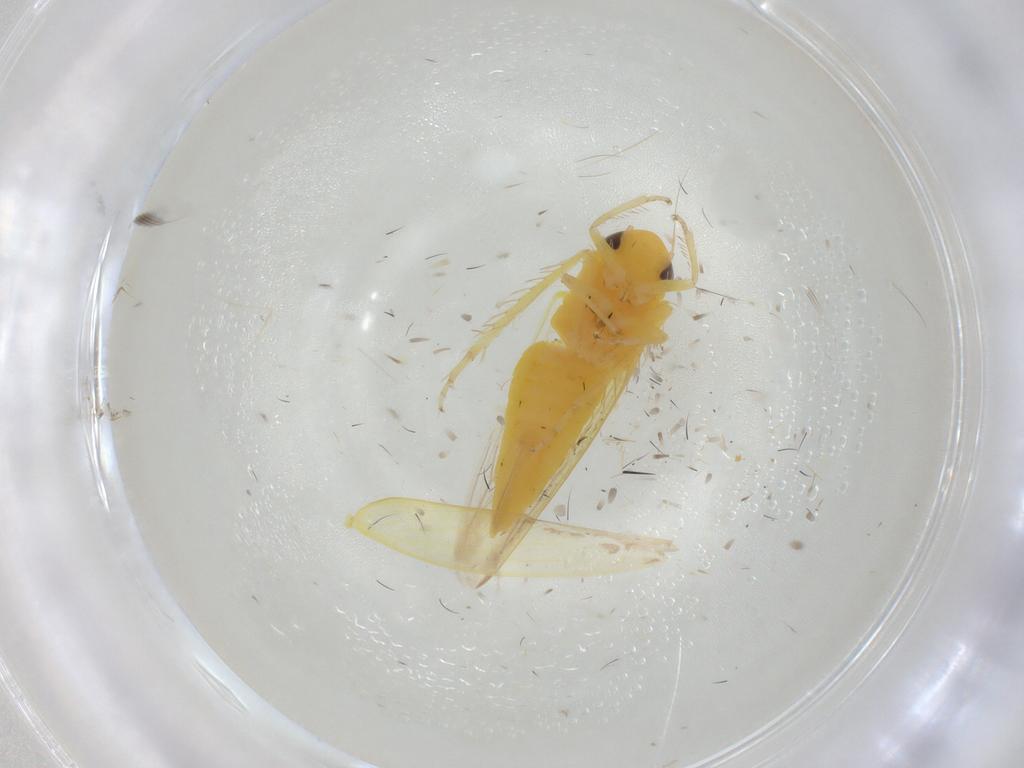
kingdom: Animalia
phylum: Arthropoda
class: Insecta
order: Hemiptera
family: Cicadellidae
